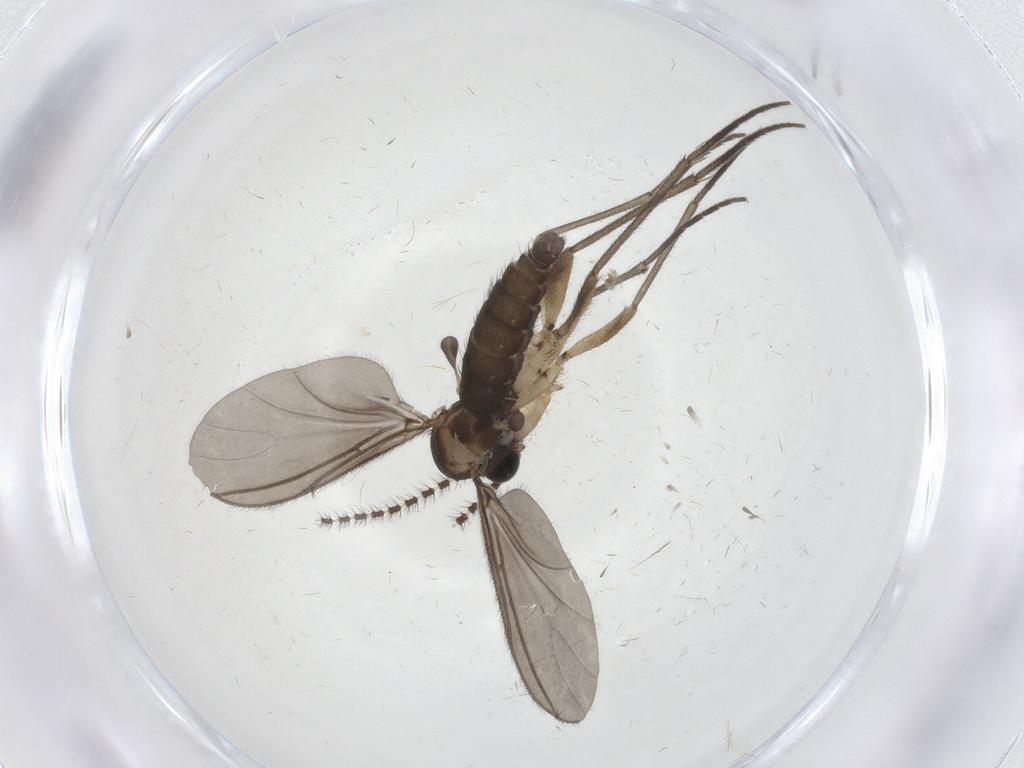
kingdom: Animalia
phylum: Arthropoda
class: Insecta
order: Diptera
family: Sciaridae
